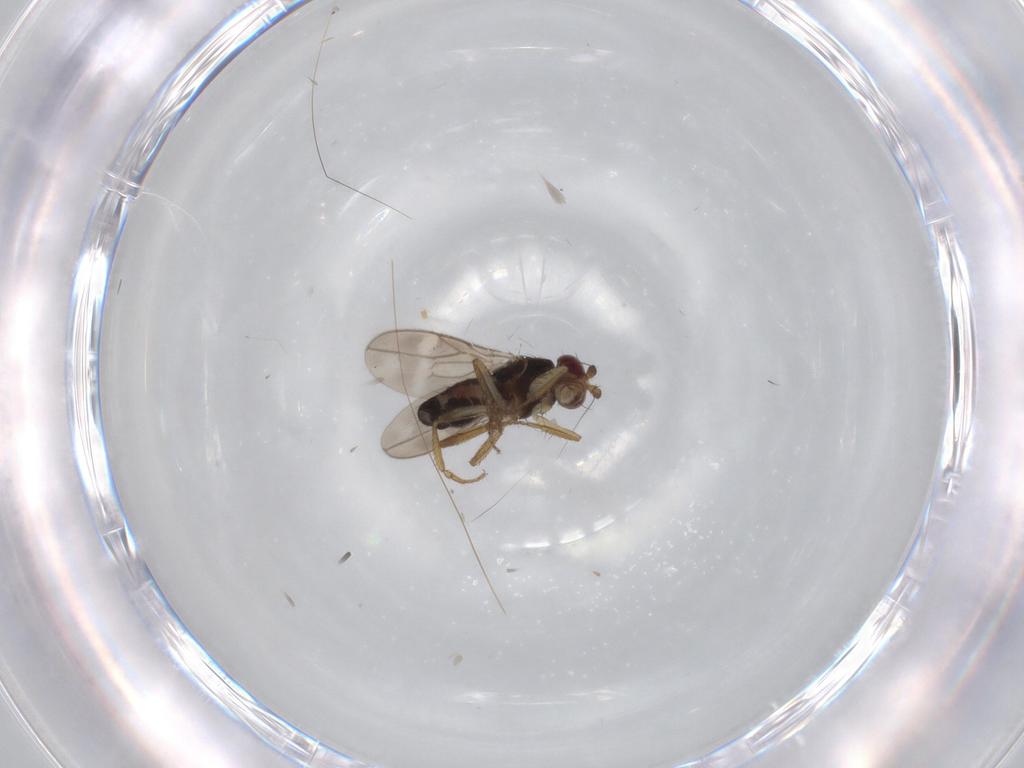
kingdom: Animalia
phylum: Arthropoda
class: Insecta
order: Diptera
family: Sphaeroceridae
